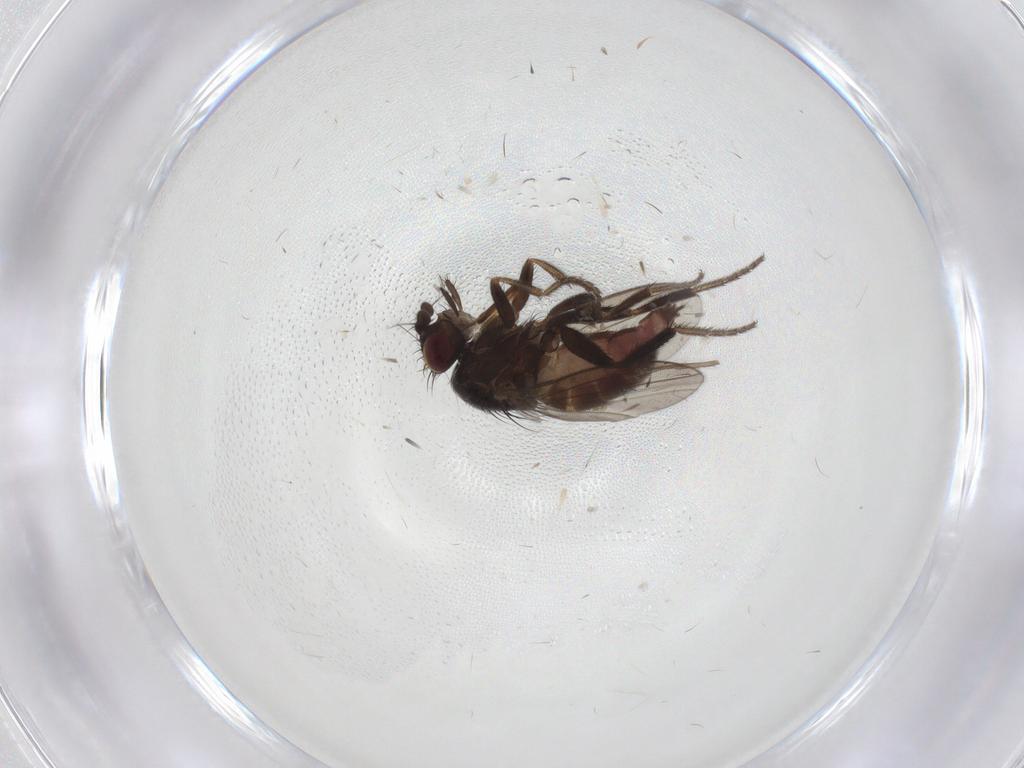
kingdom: Animalia
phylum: Arthropoda
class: Insecta
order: Diptera
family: Milichiidae
